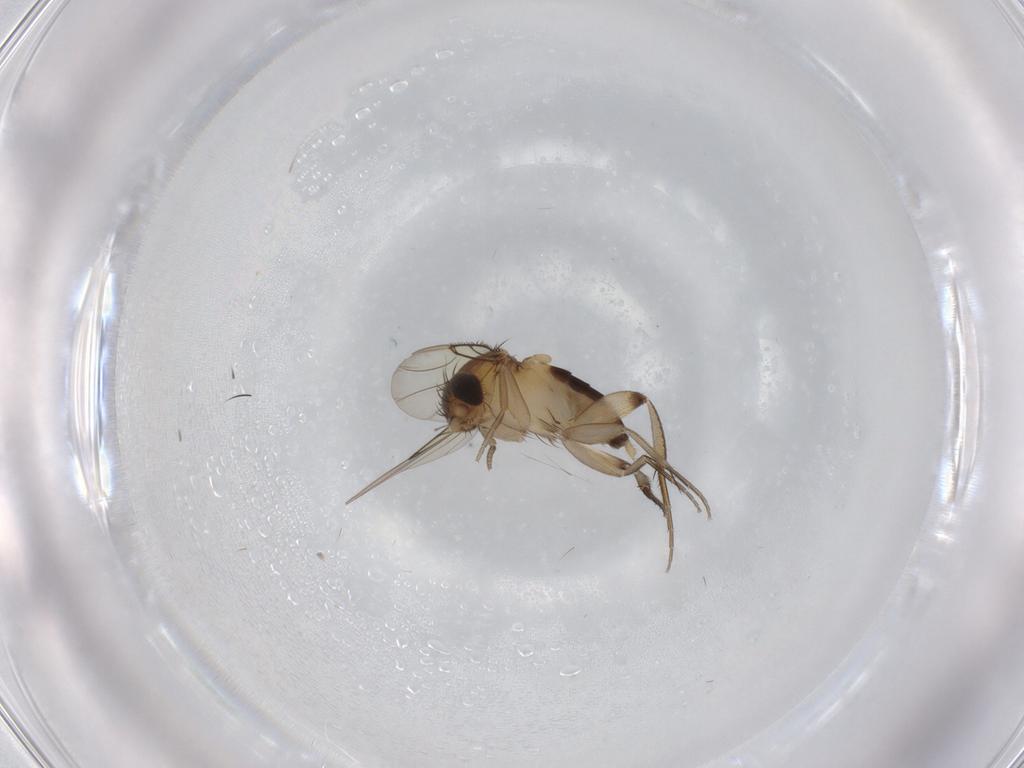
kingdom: Animalia
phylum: Arthropoda
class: Insecta
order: Diptera
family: Phoridae
